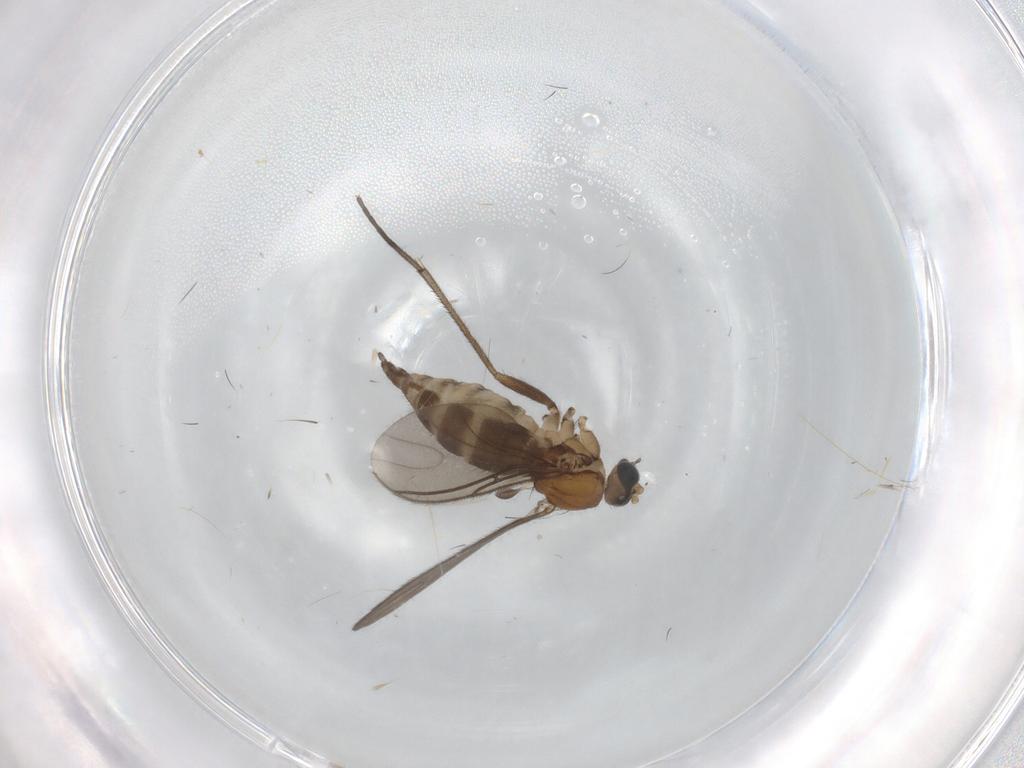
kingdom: Animalia
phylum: Arthropoda
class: Insecta
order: Diptera
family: Sciaridae
